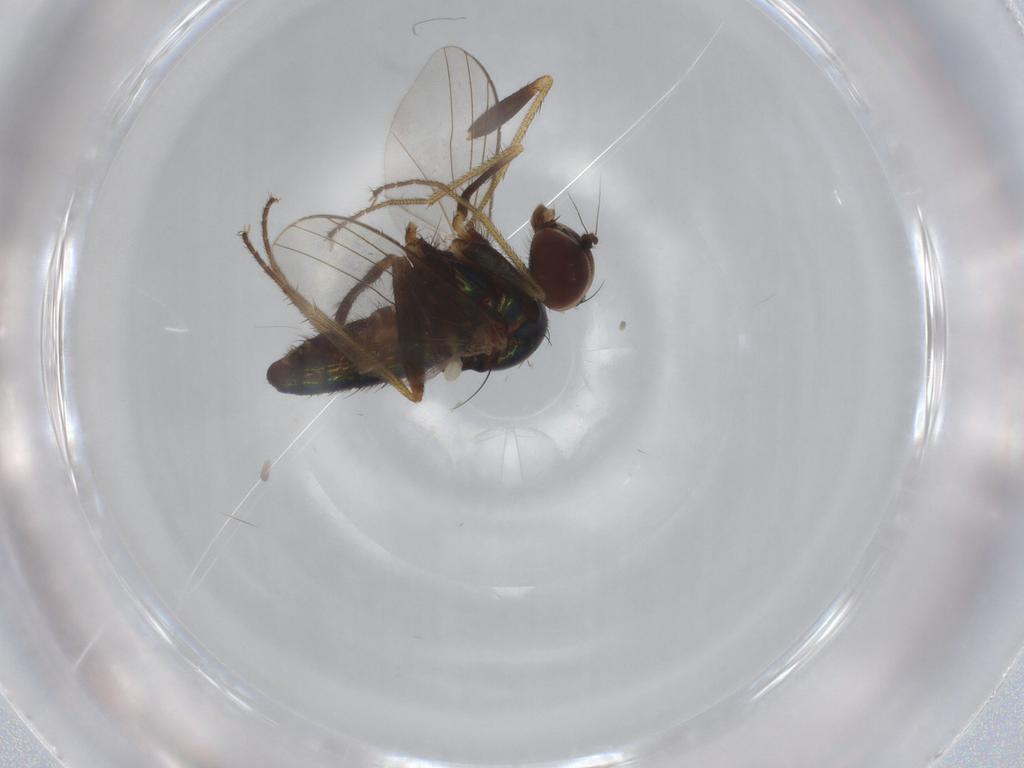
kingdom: Animalia
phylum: Arthropoda
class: Insecta
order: Diptera
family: Dolichopodidae
